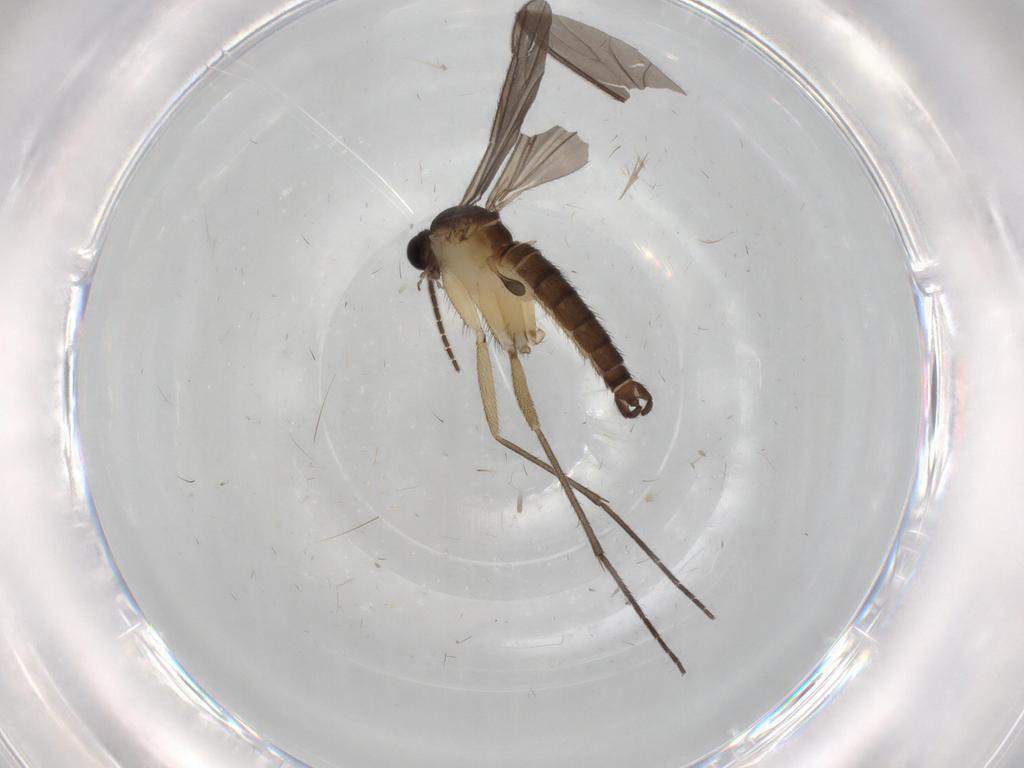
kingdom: Animalia
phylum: Arthropoda
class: Insecta
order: Diptera
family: Sciaridae
